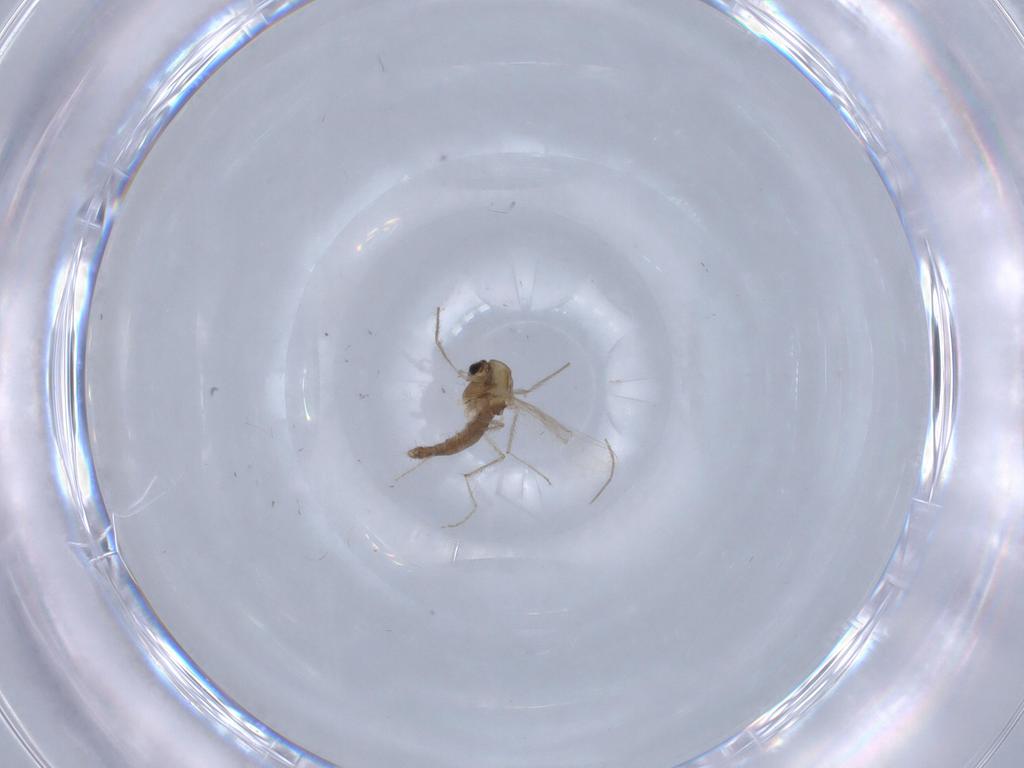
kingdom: Animalia
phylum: Arthropoda
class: Insecta
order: Diptera
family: Chironomidae
